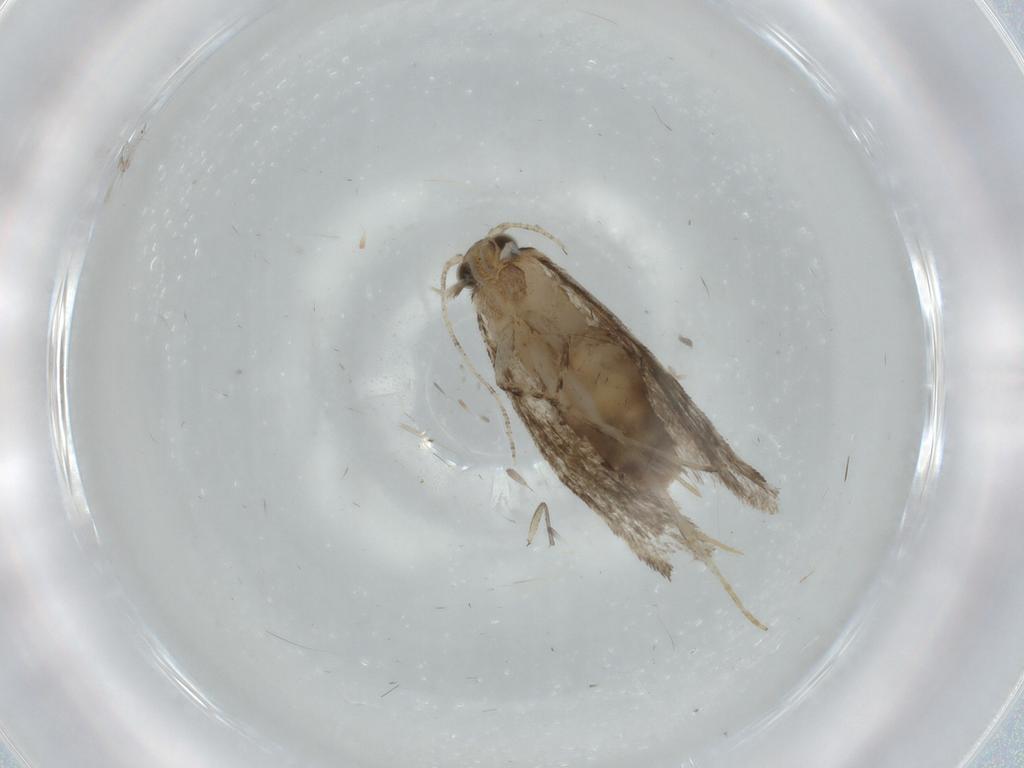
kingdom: Animalia
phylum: Arthropoda
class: Insecta
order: Lepidoptera
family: Tineidae
